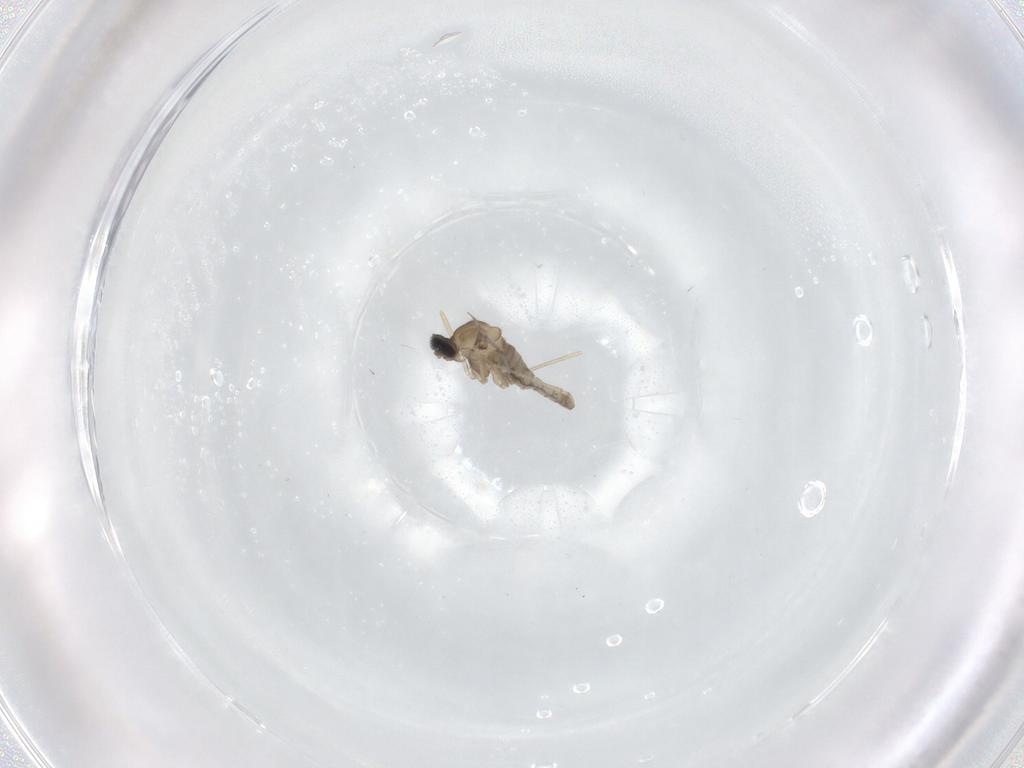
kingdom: Animalia
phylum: Arthropoda
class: Insecta
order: Diptera
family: Cecidomyiidae
